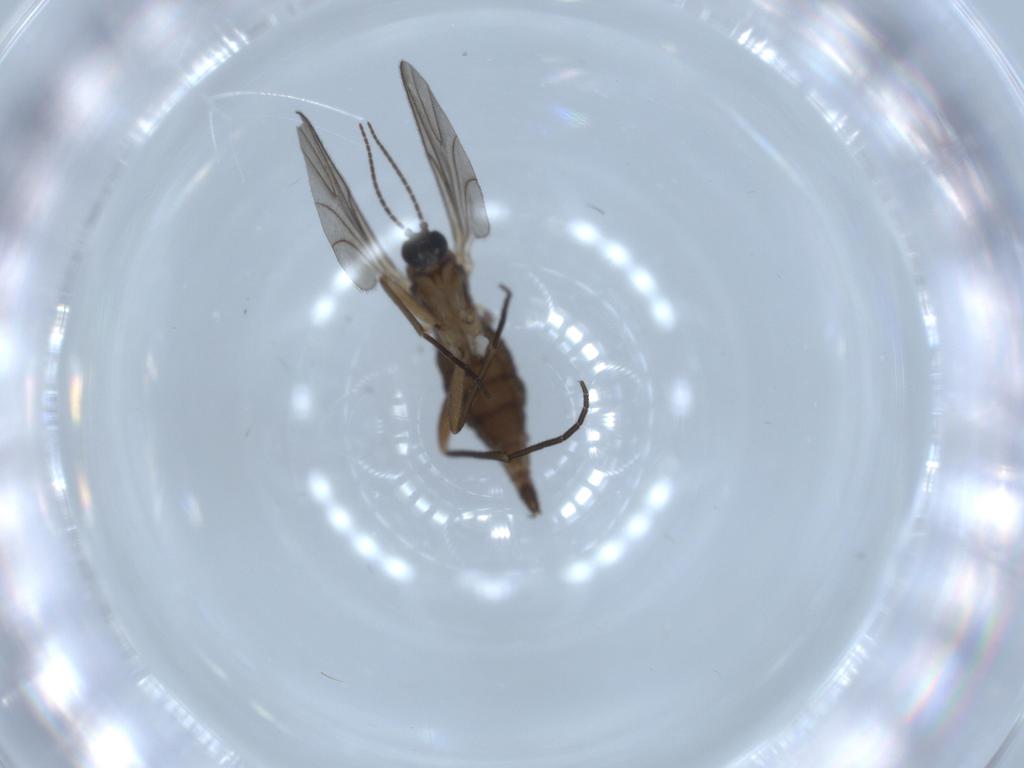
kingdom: Animalia
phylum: Arthropoda
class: Insecta
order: Diptera
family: Sciaridae
